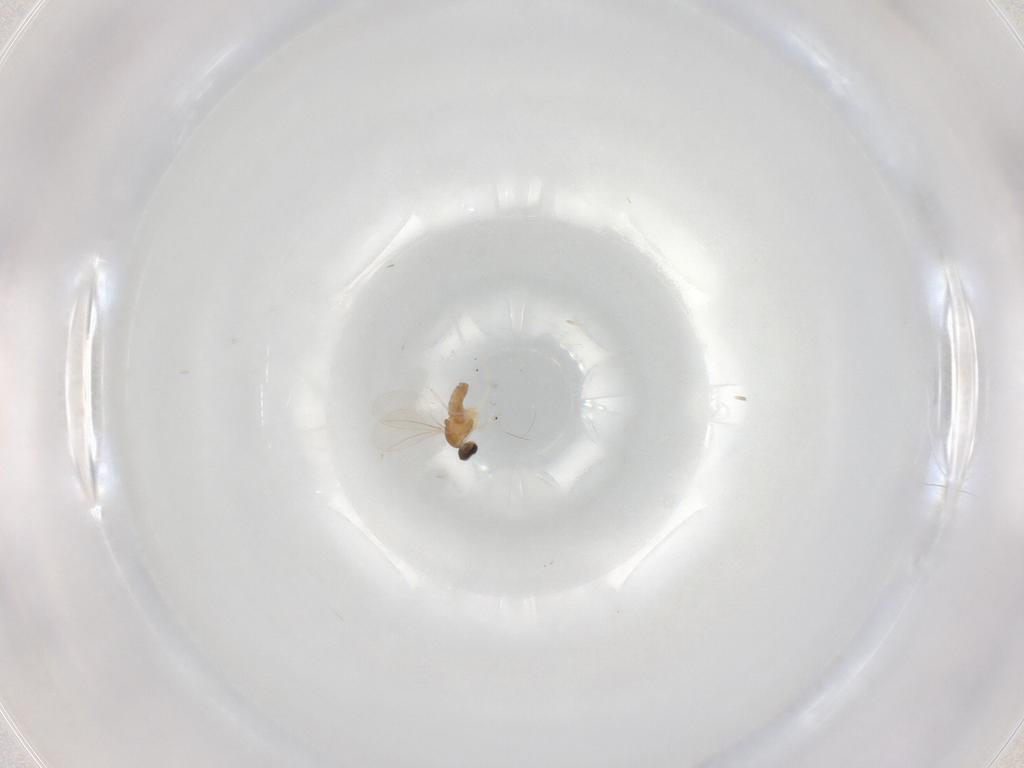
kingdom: Animalia
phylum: Arthropoda
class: Insecta
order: Diptera
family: Cecidomyiidae
